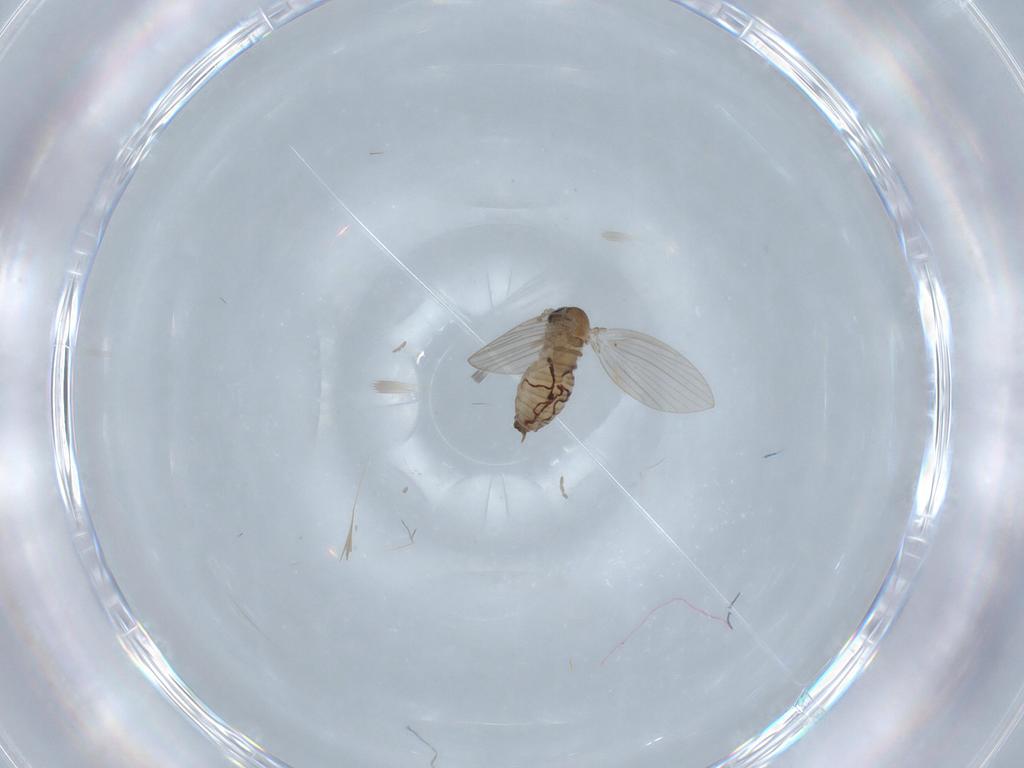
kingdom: Animalia
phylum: Arthropoda
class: Insecta
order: Diptera
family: Psychodidae
